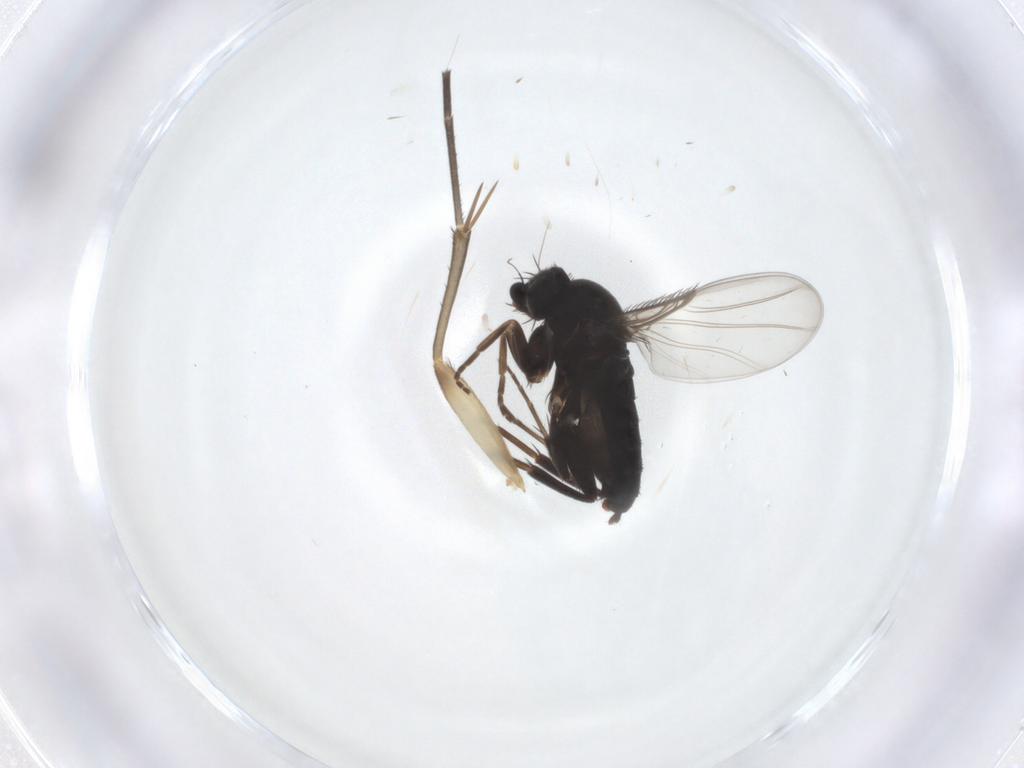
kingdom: Animalia
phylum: Arthropoda
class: Insecta
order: Diptera
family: Phoridae
